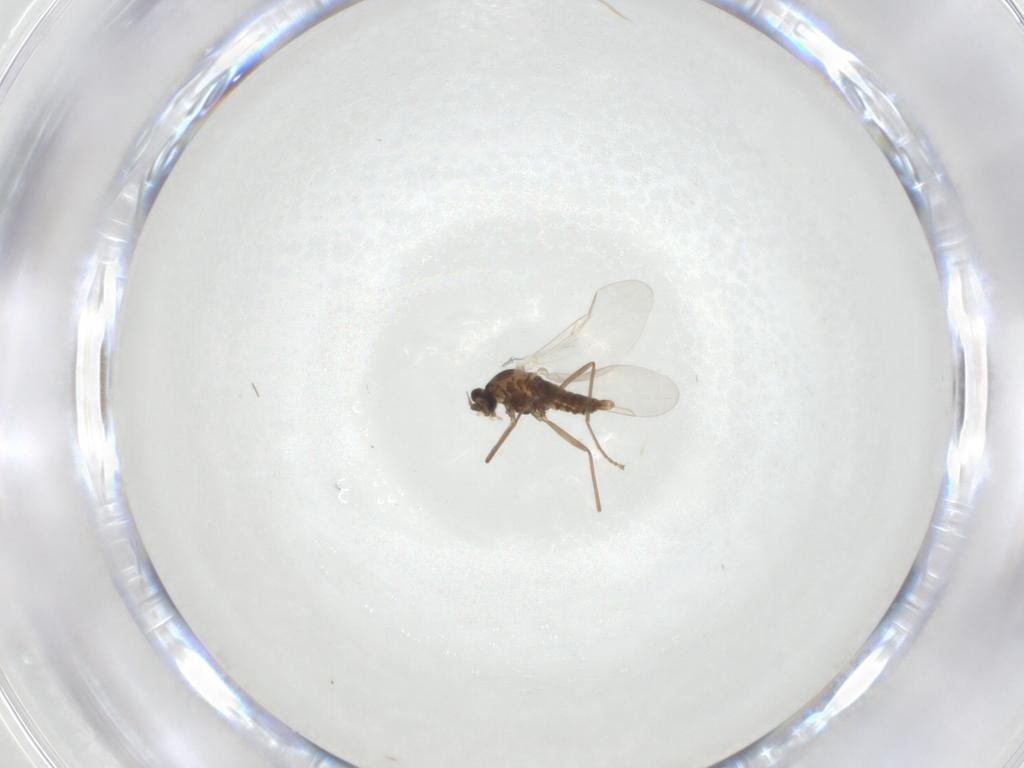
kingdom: Animalia
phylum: Arthropoda
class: Insecta
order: Diptera
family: Cecidomyiidae
